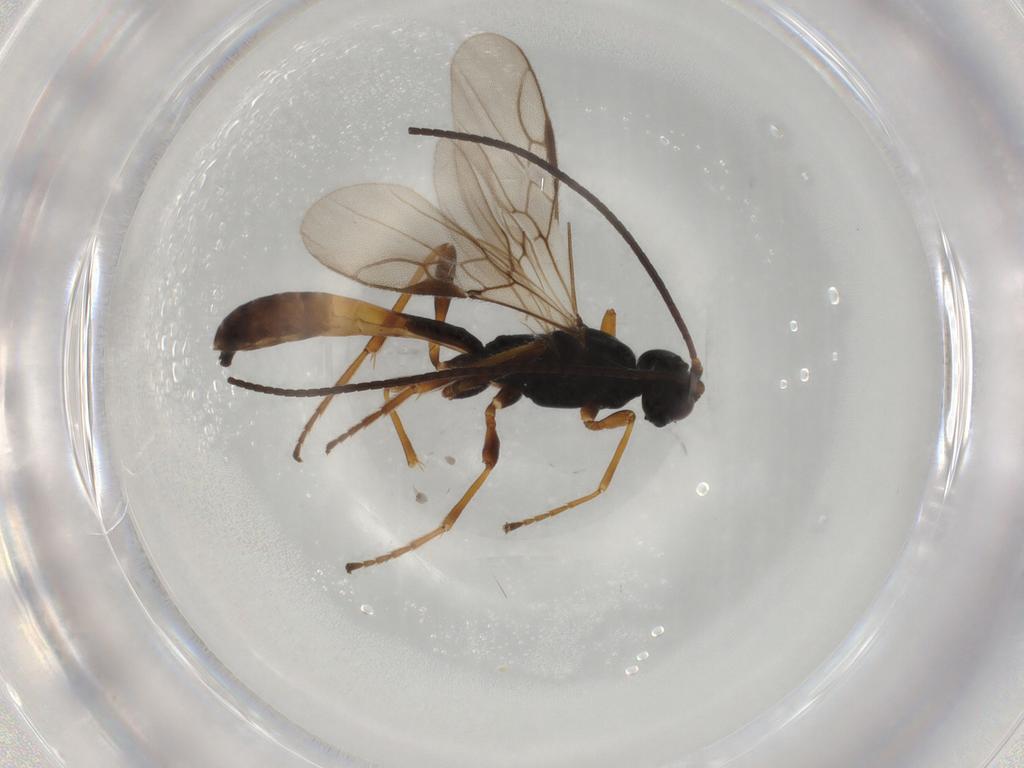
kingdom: Animalia
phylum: Arthropoda
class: Insecta
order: Hymenoptera
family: Braconidae
